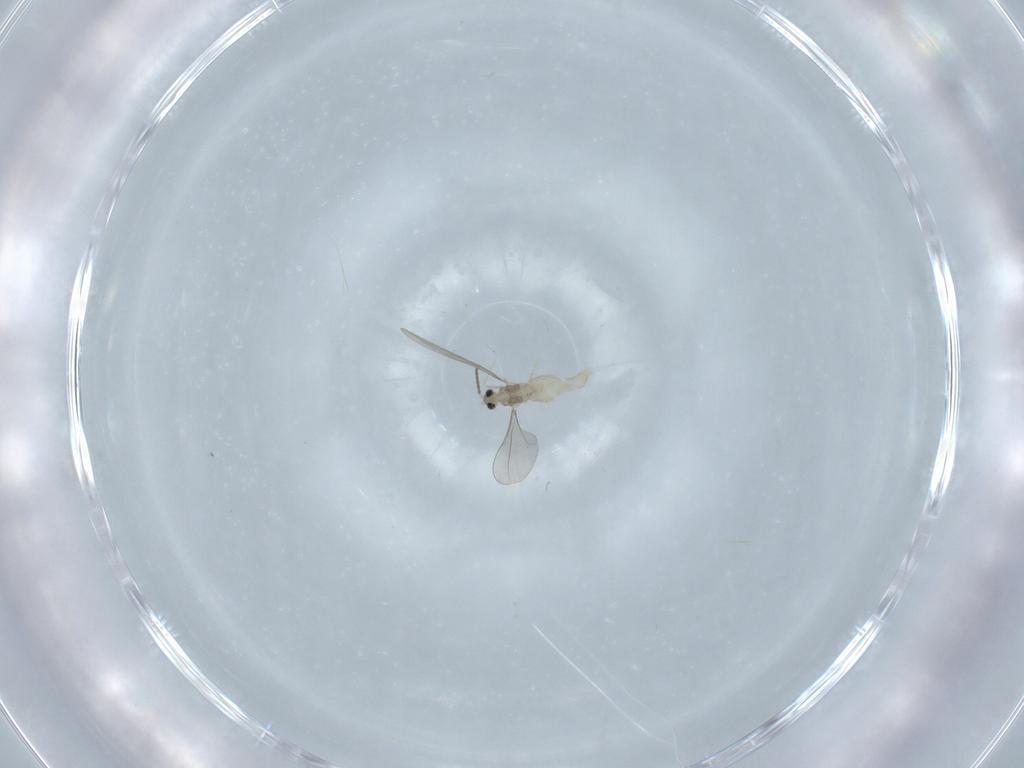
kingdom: Animalia
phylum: Arthropoda
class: Insecta
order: Diptera
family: Cecidomyiidae
